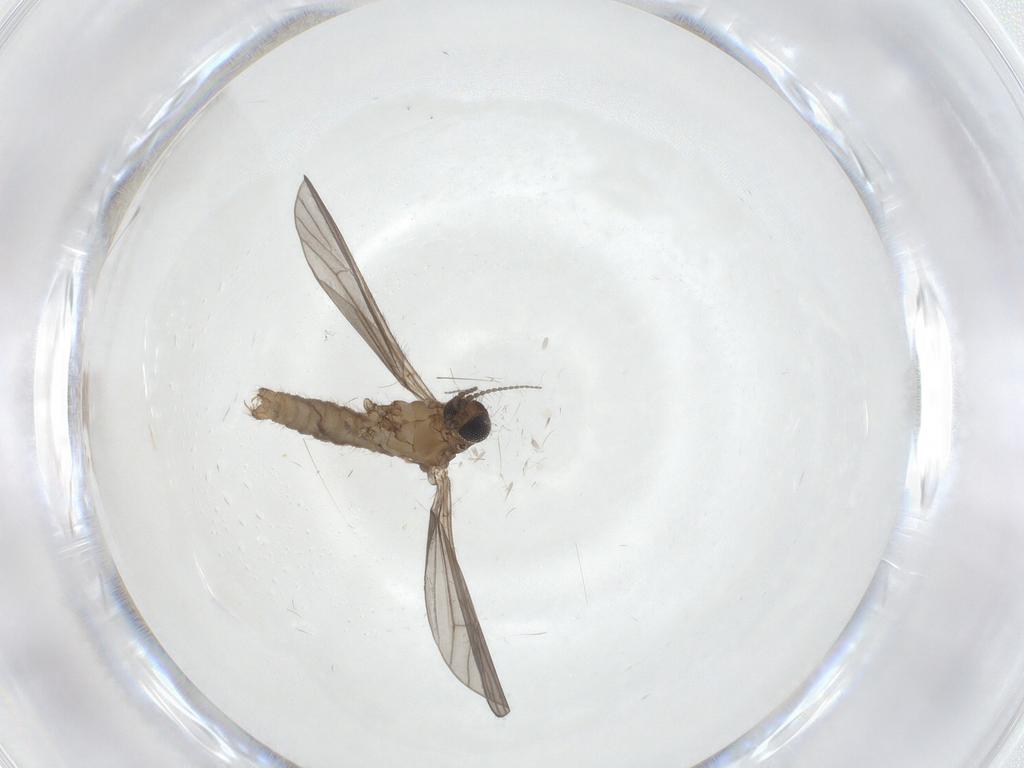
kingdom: Animalia
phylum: Arthropoda
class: Insecta
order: Diptera
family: Limoniidae
